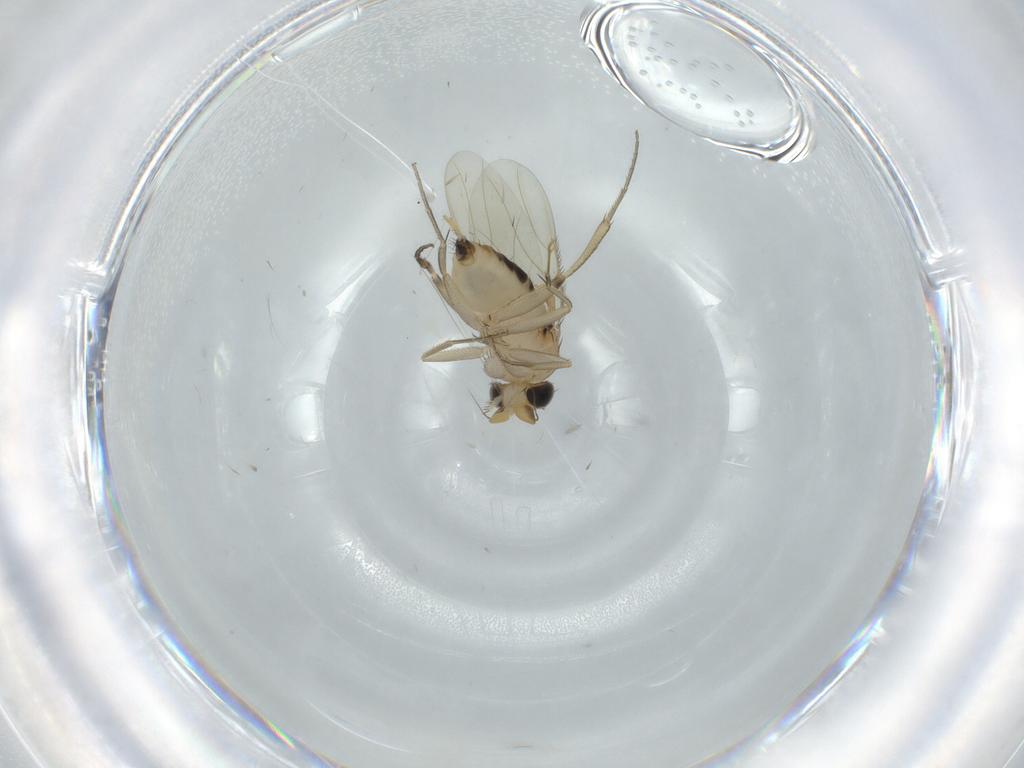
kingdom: Animalia
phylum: Arthropoda
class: Insecta
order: Diptera
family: Phoridae
